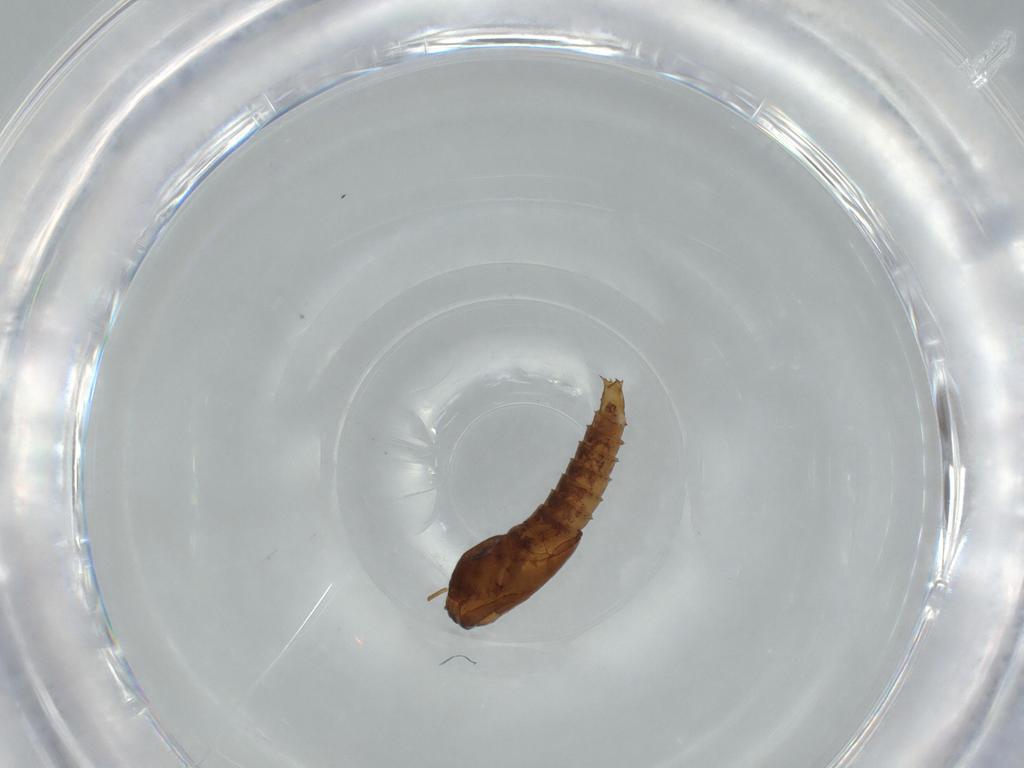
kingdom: Animalia
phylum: Arthropoda
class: Insecta
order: Diptera
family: Ceratopogonidae
